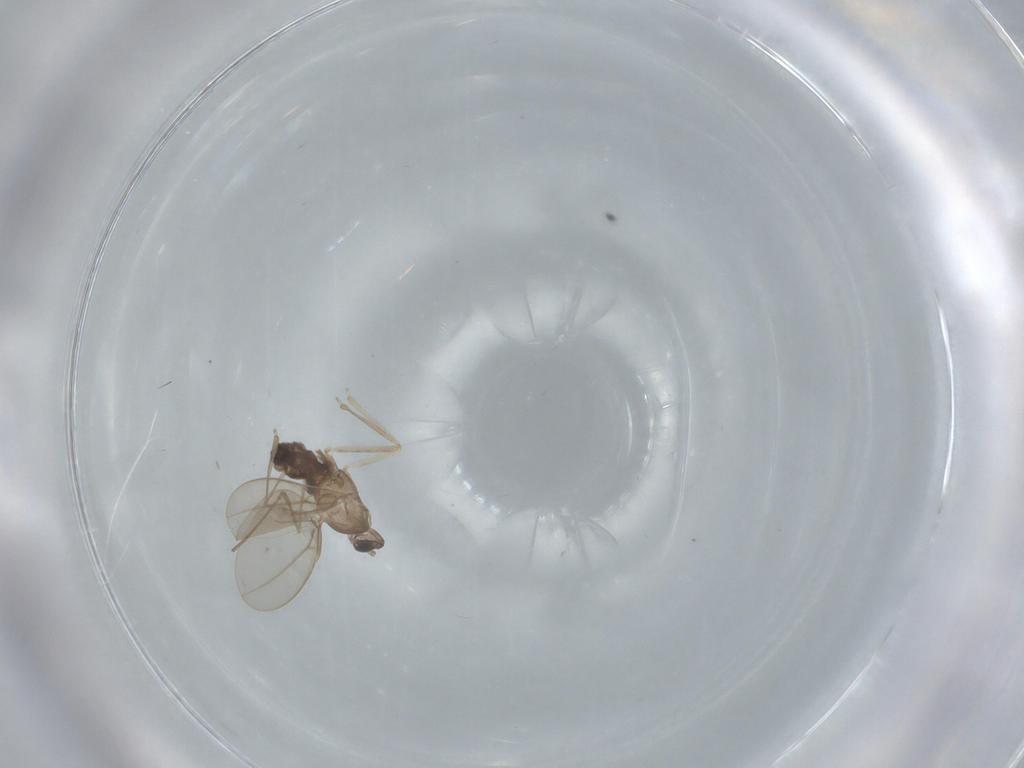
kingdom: Animalia
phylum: Arthropoda
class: Insecta
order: Diptera
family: Cecidomyiidae
